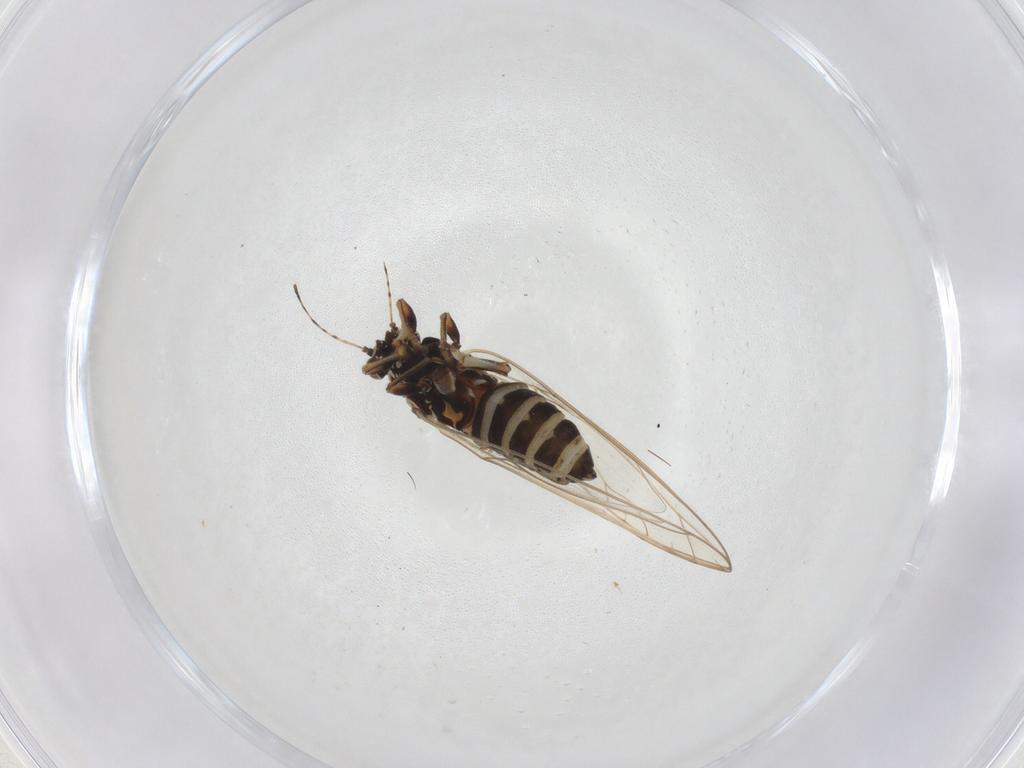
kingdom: Animalia
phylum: Arthropoda
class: Insecta
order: Hemiptera
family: Triozidae
